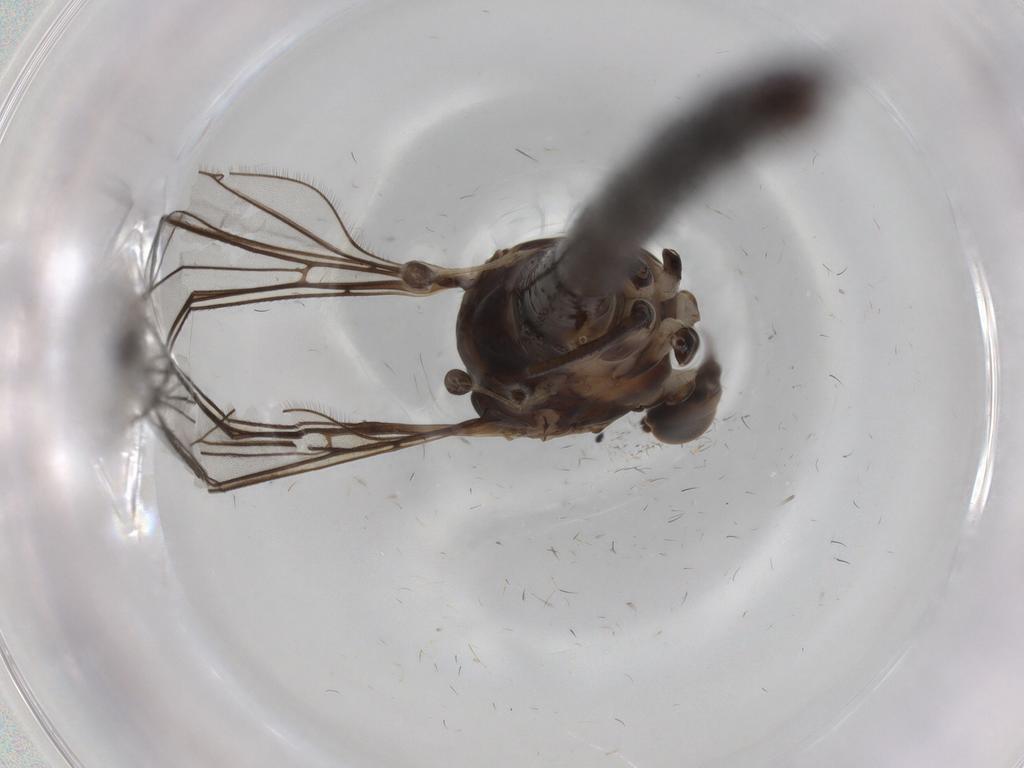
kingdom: Animalia
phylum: Arthropoda
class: Insecta
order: Diptera
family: Limoniidae
